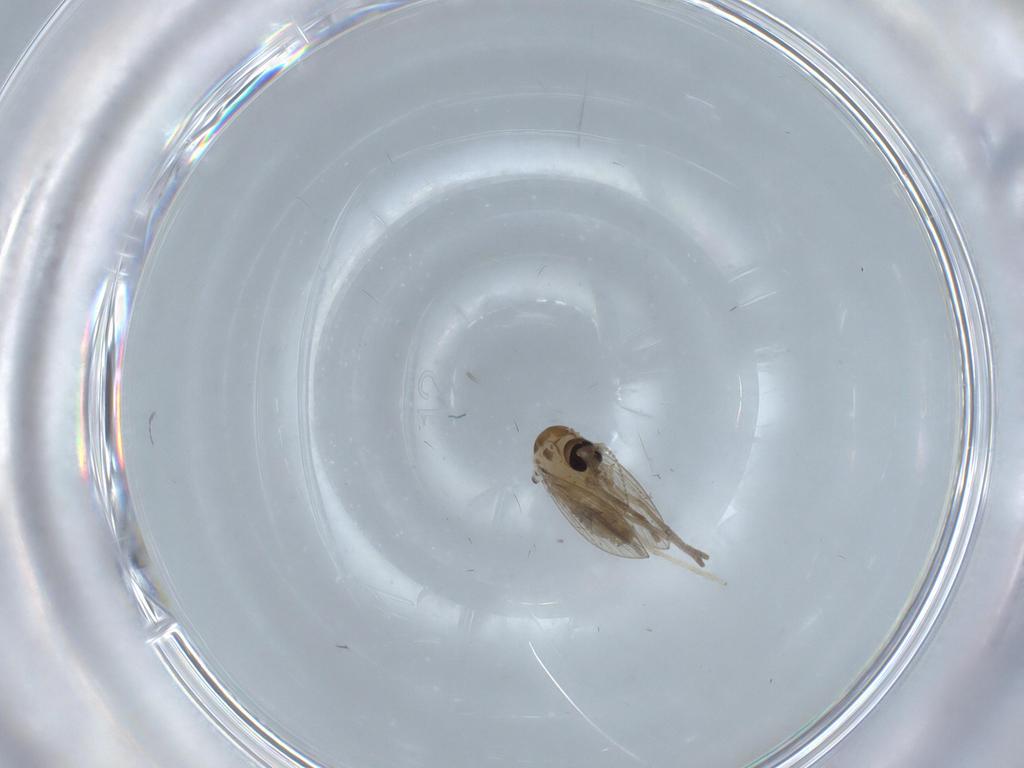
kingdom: Animalia
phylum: Arthropoda
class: Insecta
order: Diptera
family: Psychodidae
